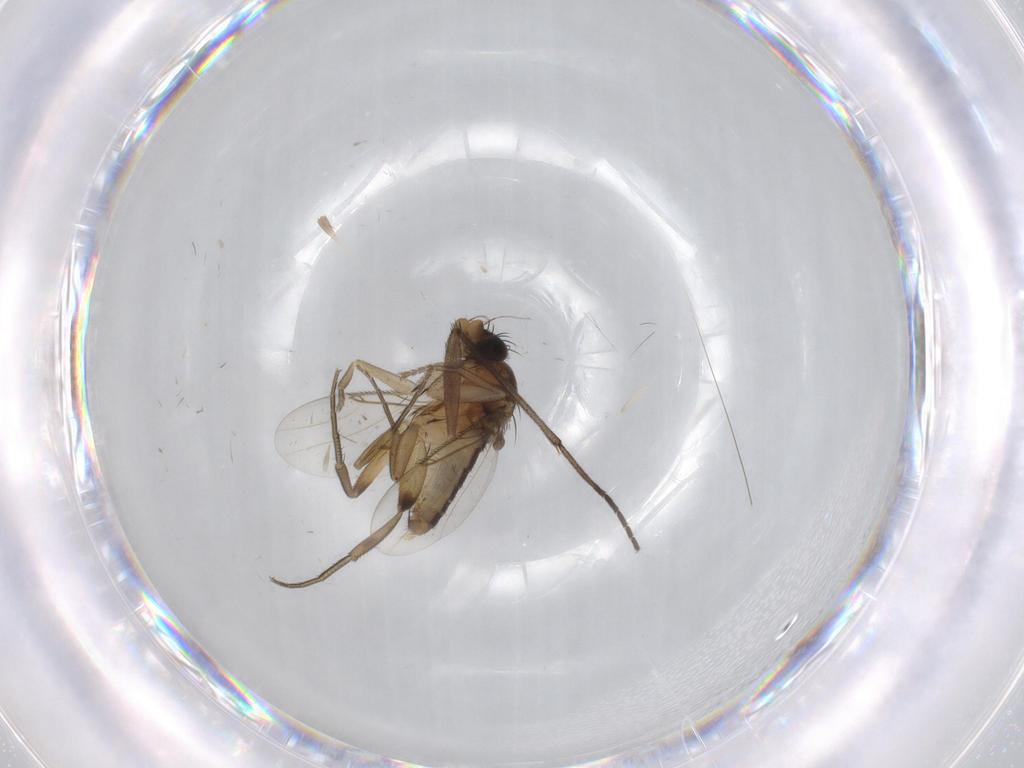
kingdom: Animalia
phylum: Arthropoda
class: Insecta
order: Diptera
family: Phoridae
